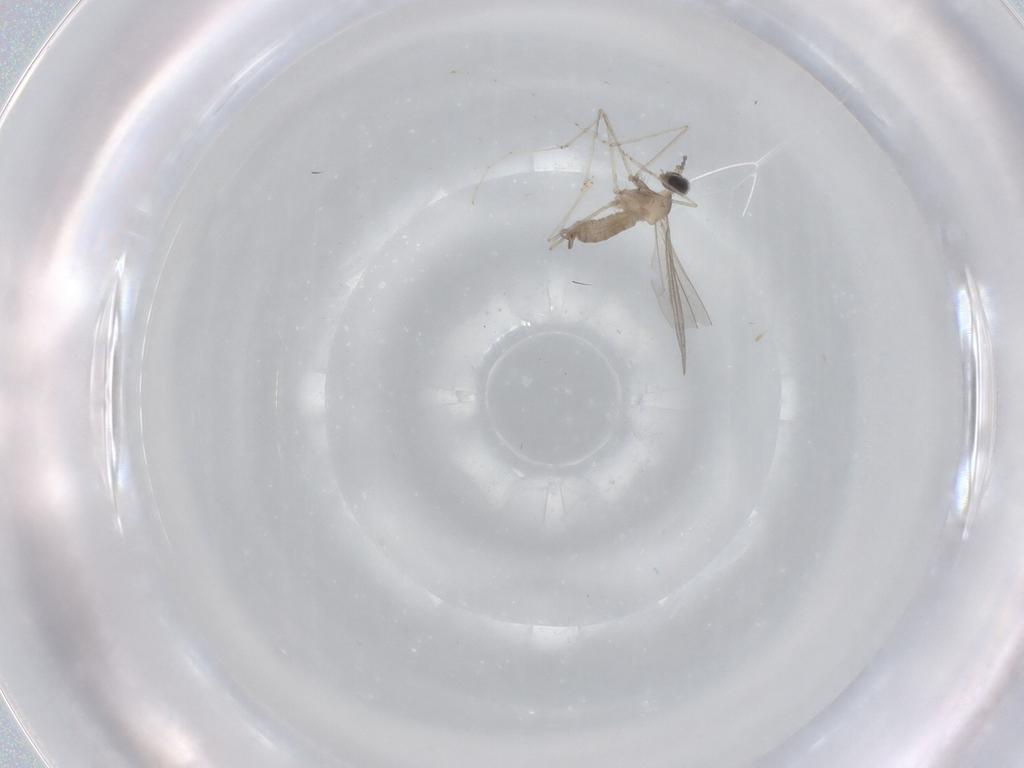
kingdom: Animalia
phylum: Arthropoda
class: Insecta
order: Diptera
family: Cecidomyiidae
